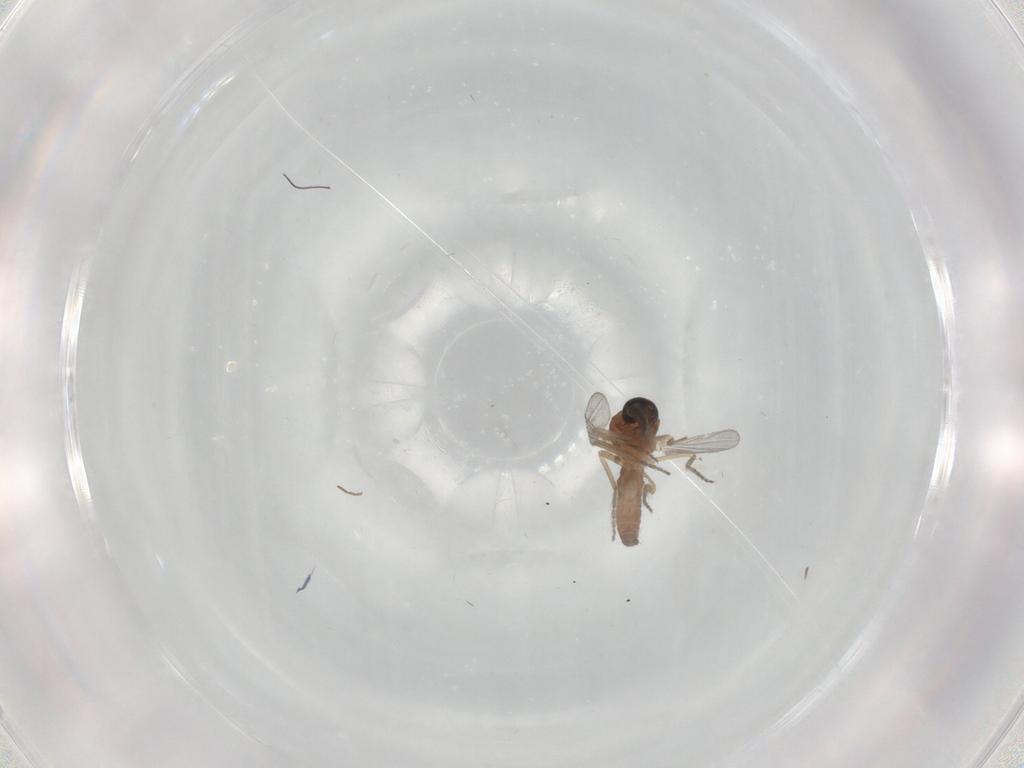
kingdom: Animalia
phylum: Arthropoda
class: Insecta
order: Diptera
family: Ceratopogonidae
